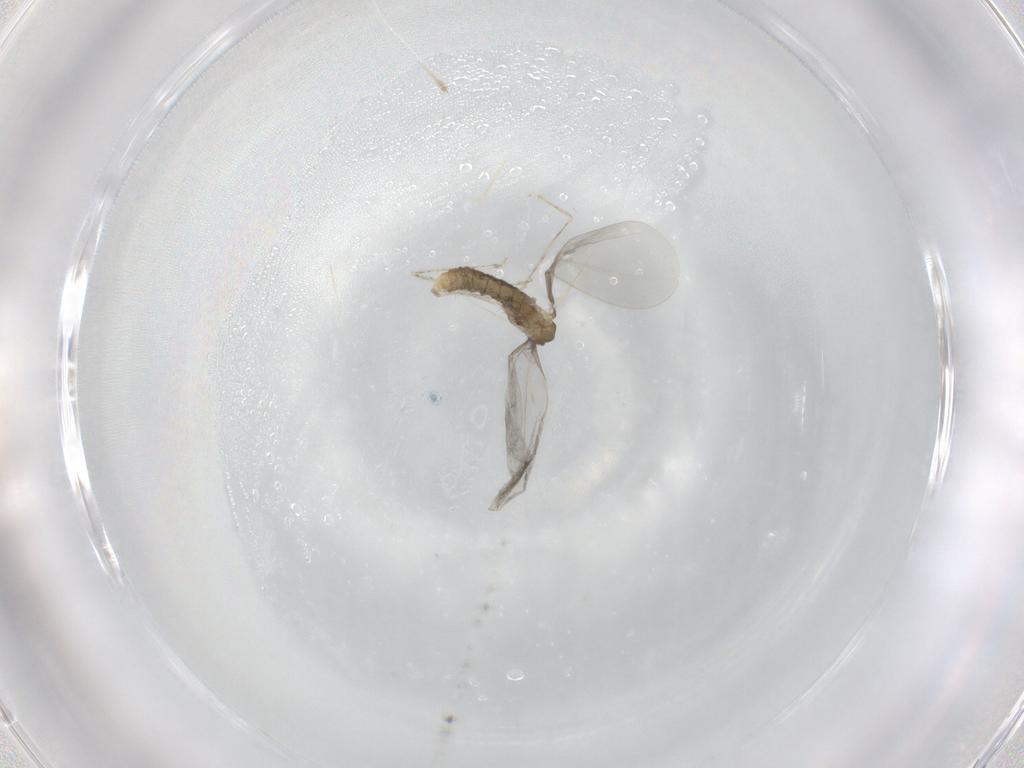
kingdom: Animalia
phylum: Arthropoda
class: Insecta
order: Diptera
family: Cecidomyiidae
